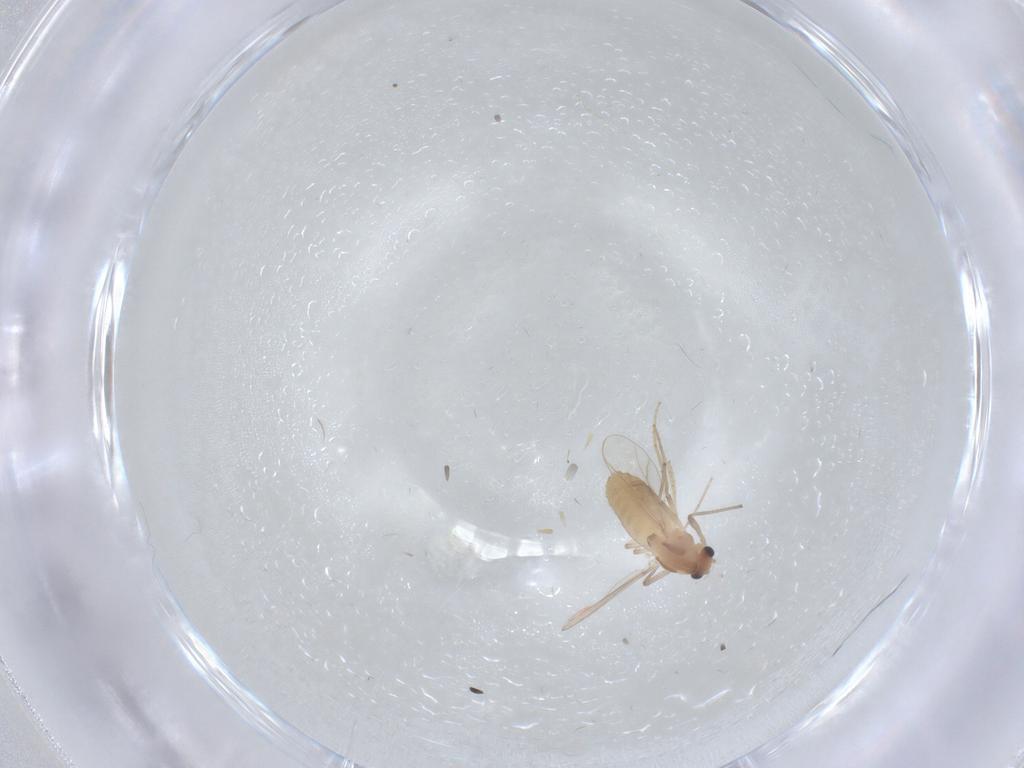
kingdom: Animalia
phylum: Arthropoda
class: Insecta
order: Diptera
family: Chironomidae
